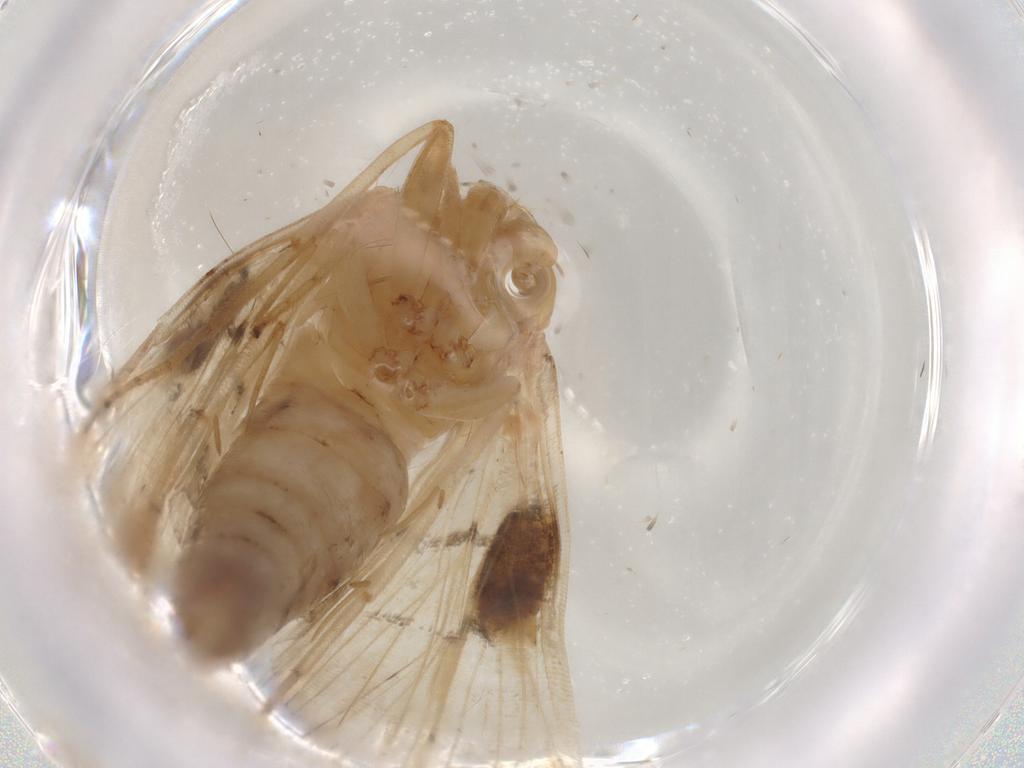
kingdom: Animalia
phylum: Arthropoda
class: Insecta
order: Lepidoptera
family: Crambidae
